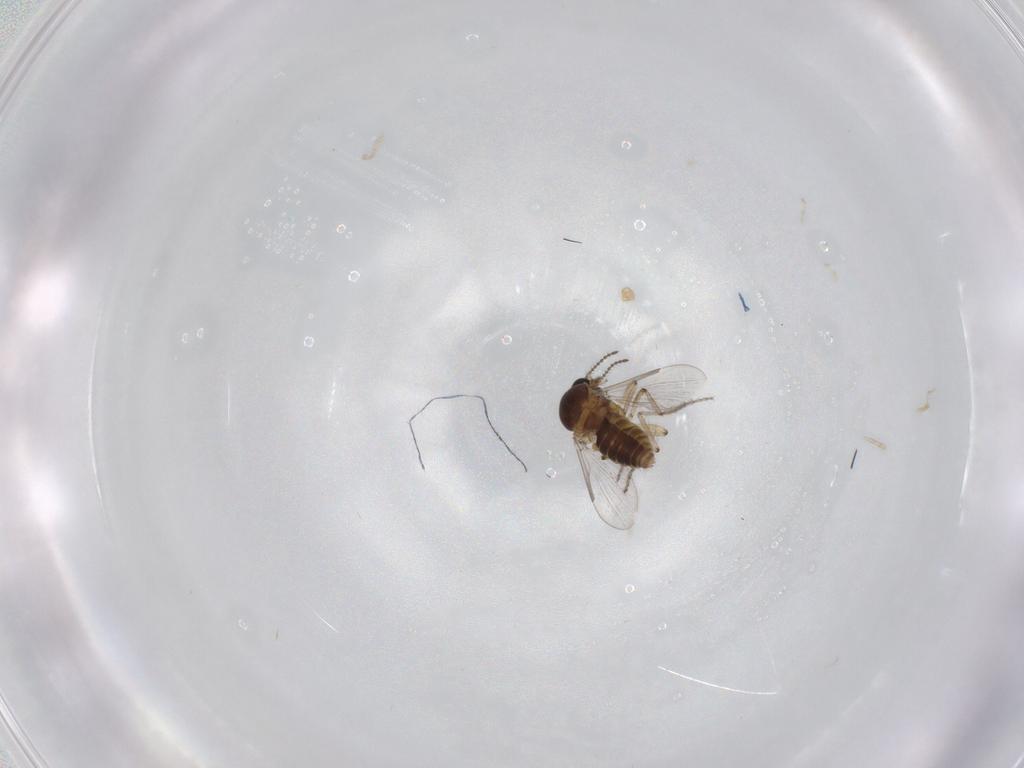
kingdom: Animalia
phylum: Arthropoda
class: Insecta
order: Diptera
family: Ceratopogonidae
